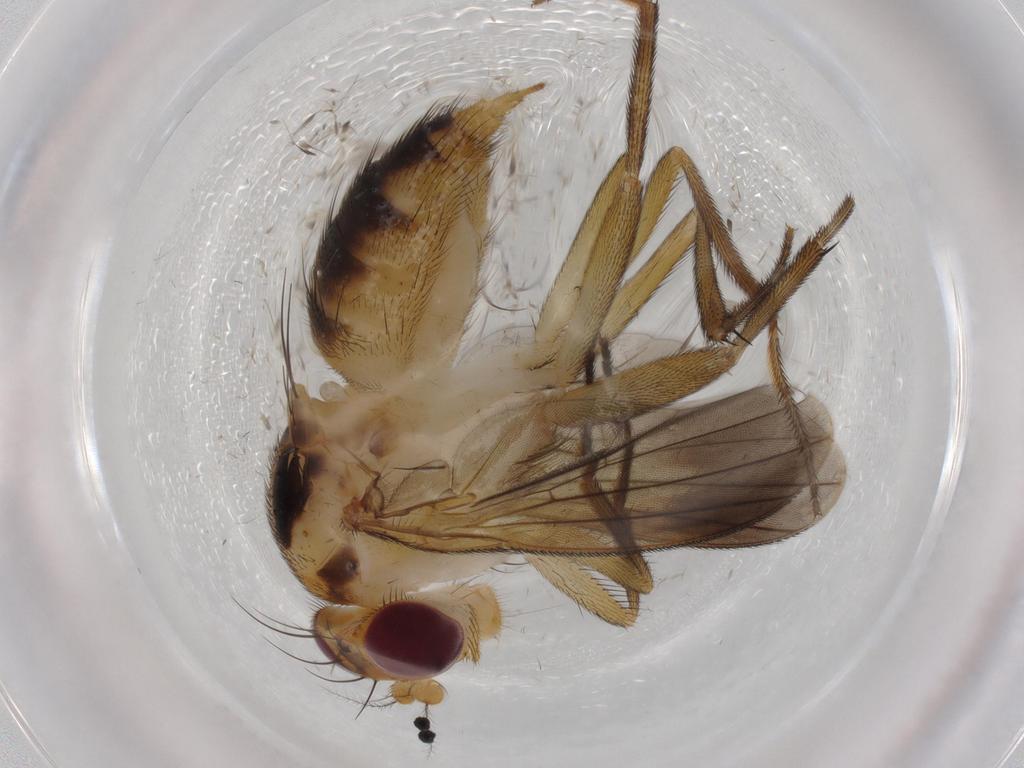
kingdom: Animalia
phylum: Arthropoda
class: Insecta
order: Diptera
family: Clusiidae
